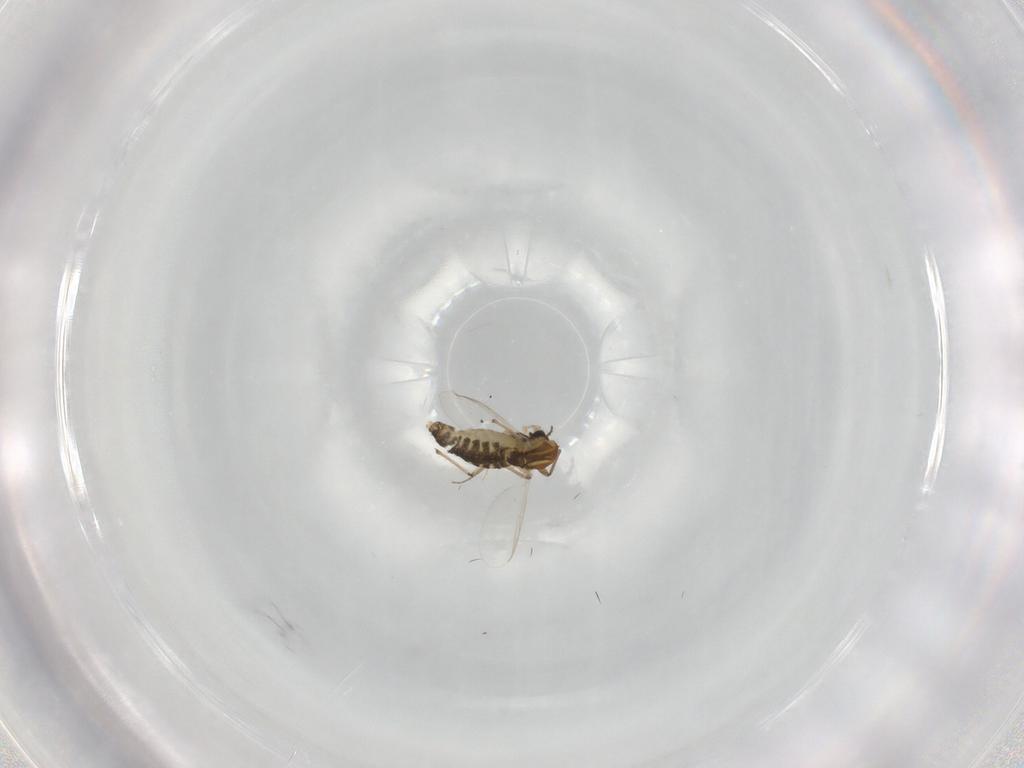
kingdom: Animalia
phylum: Arthropoda
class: Insecta
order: Diptera
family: Chironomidae
